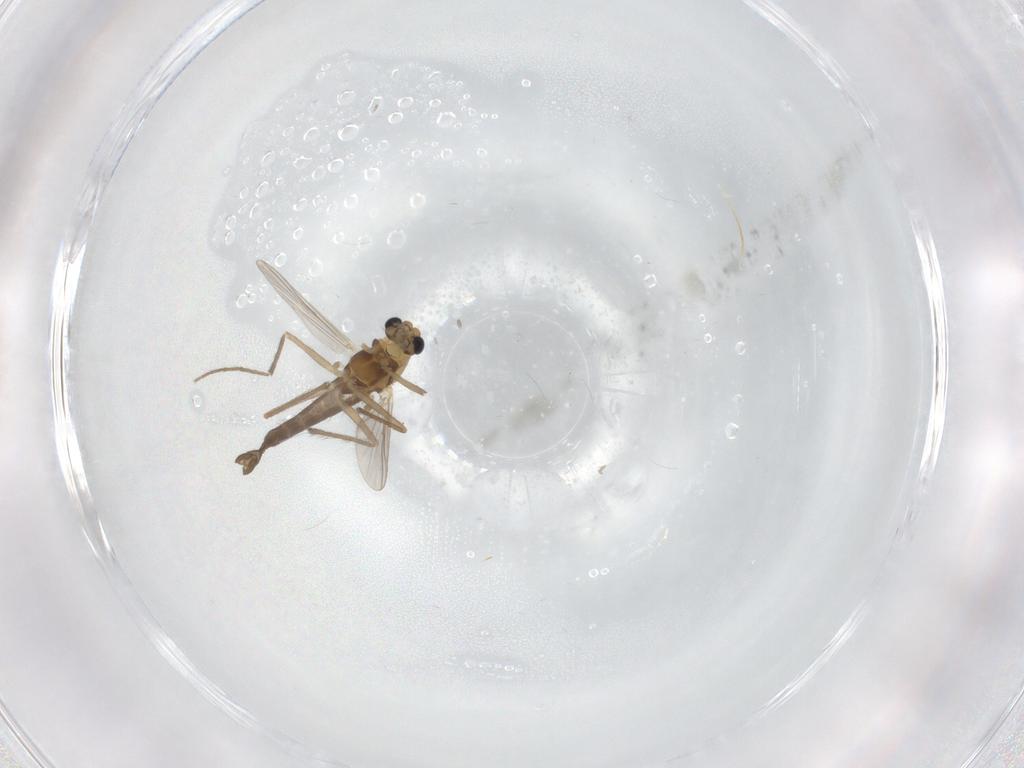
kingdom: Animalia
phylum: Arthropoda
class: Insecta
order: Diptera
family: Chironomidae
